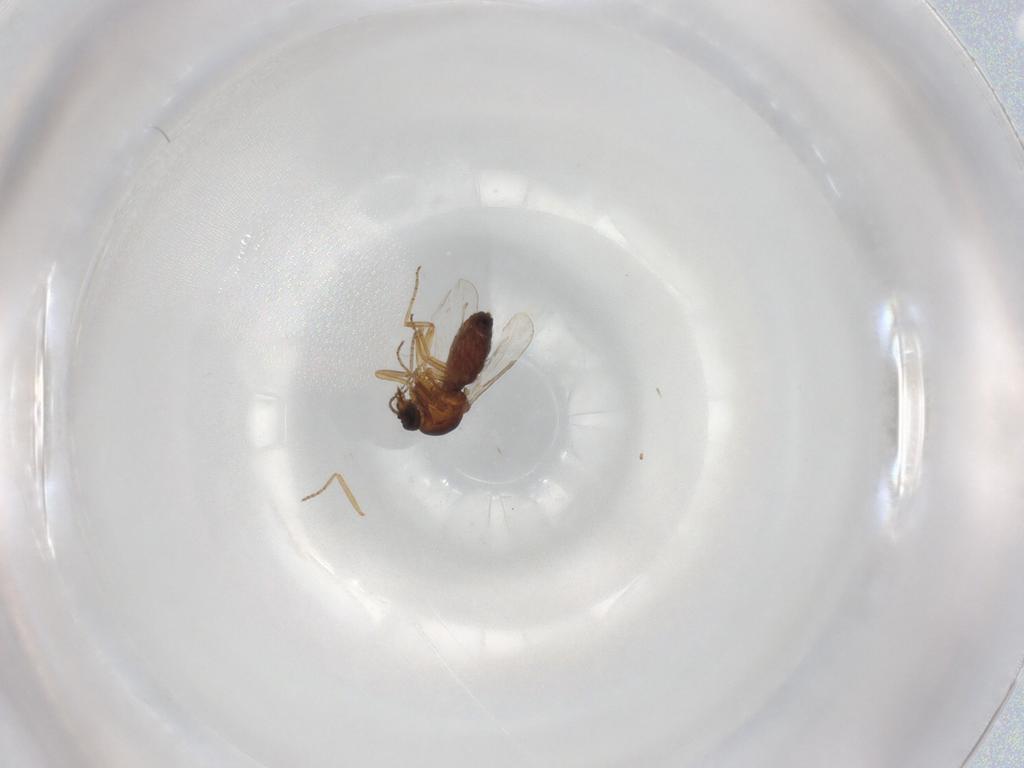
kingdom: Animalia
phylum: Arthropoda
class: Insecta
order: Diptera
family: Ceratopogonidae
